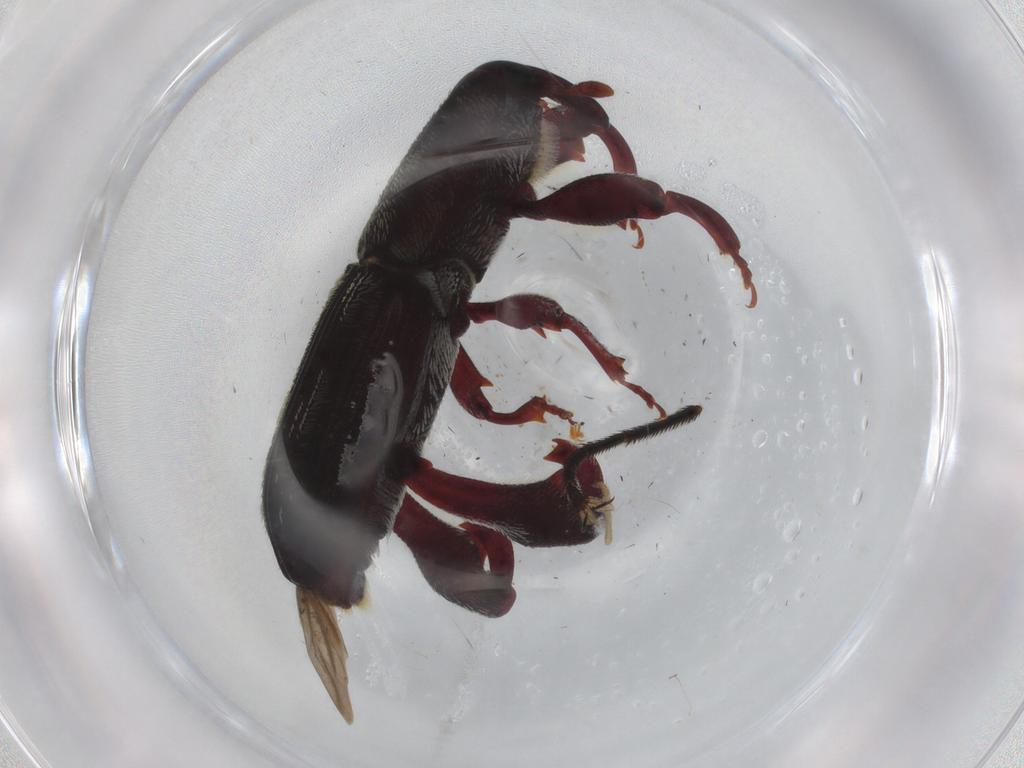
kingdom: Animalia
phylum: Arthropoda
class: Insecta
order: Coleoptera
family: Curculionidae
